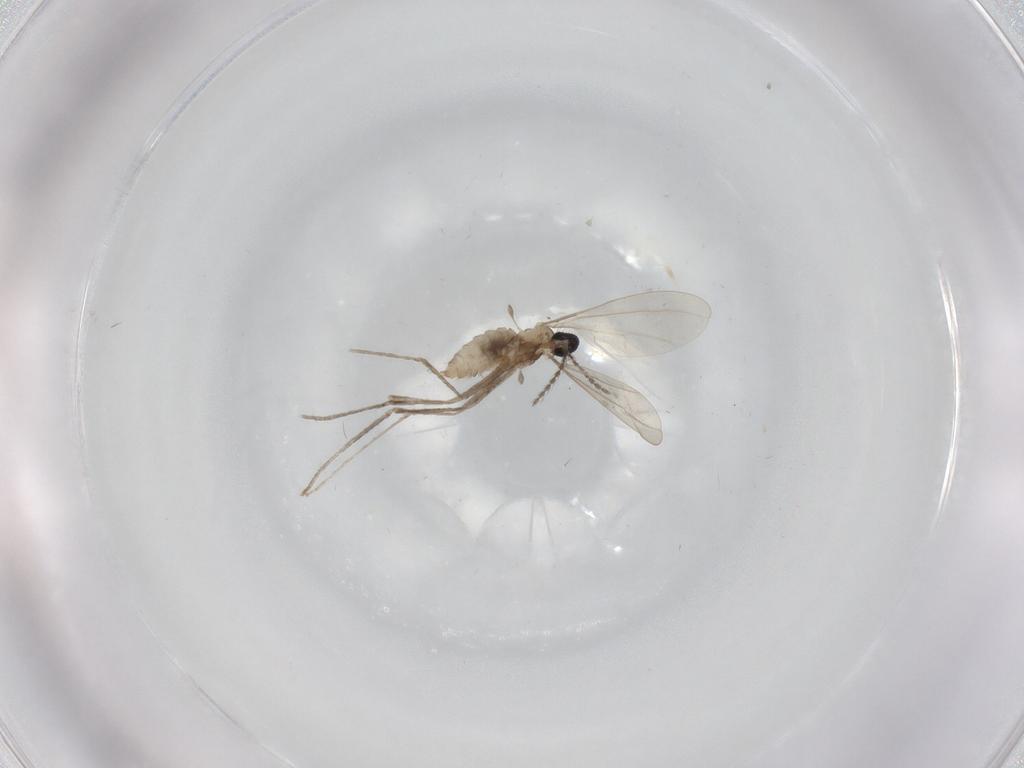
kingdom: Animalia
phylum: Arthropoda
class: Insecta
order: Diptera
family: Cecidomyiidae
